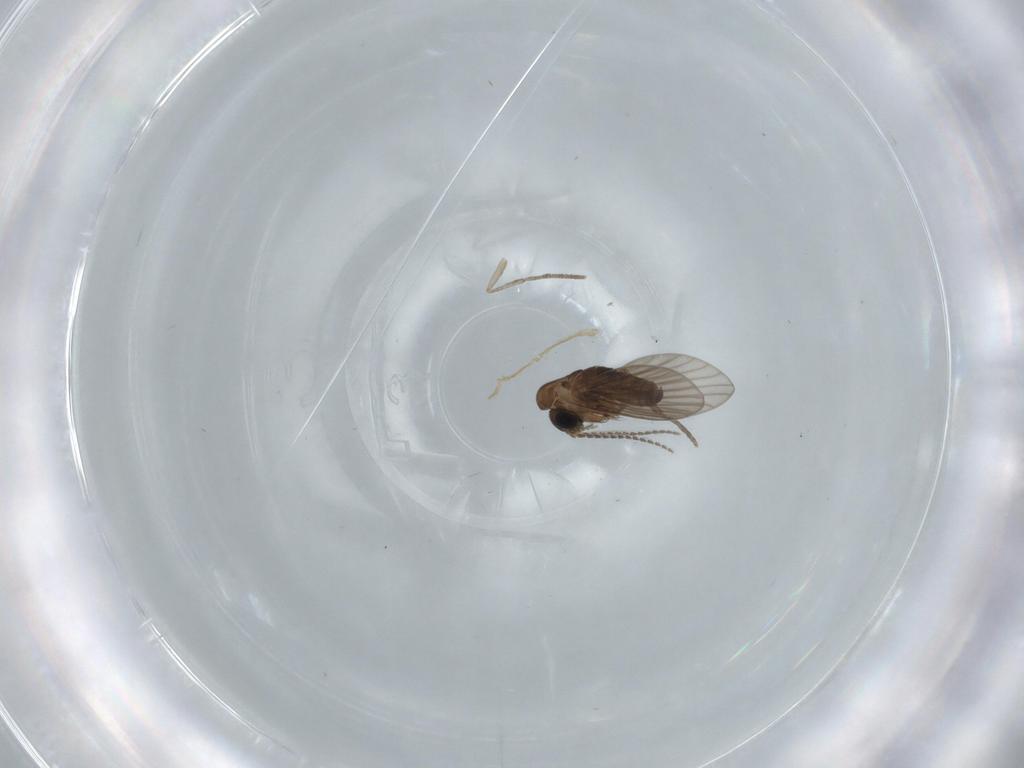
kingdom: Animalia
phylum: Arthropoda
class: Insecta
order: Diptera
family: Psychodidae
